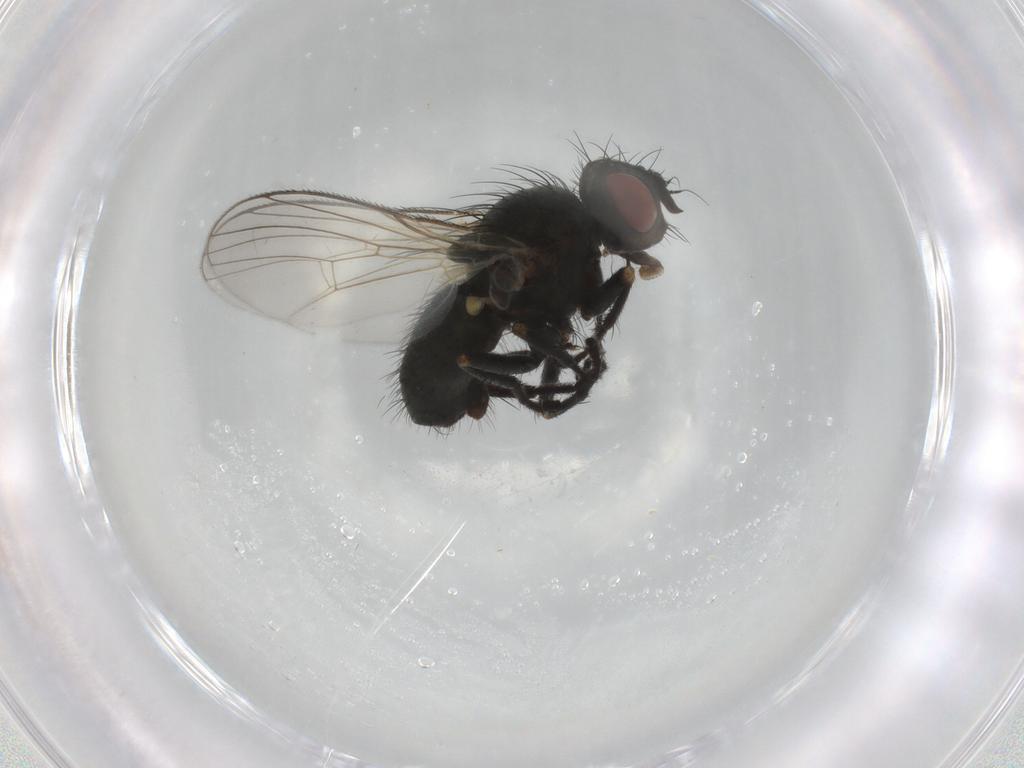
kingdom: Animalia
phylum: Arthropoda
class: Insecta
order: Diptera
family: Muscidae
